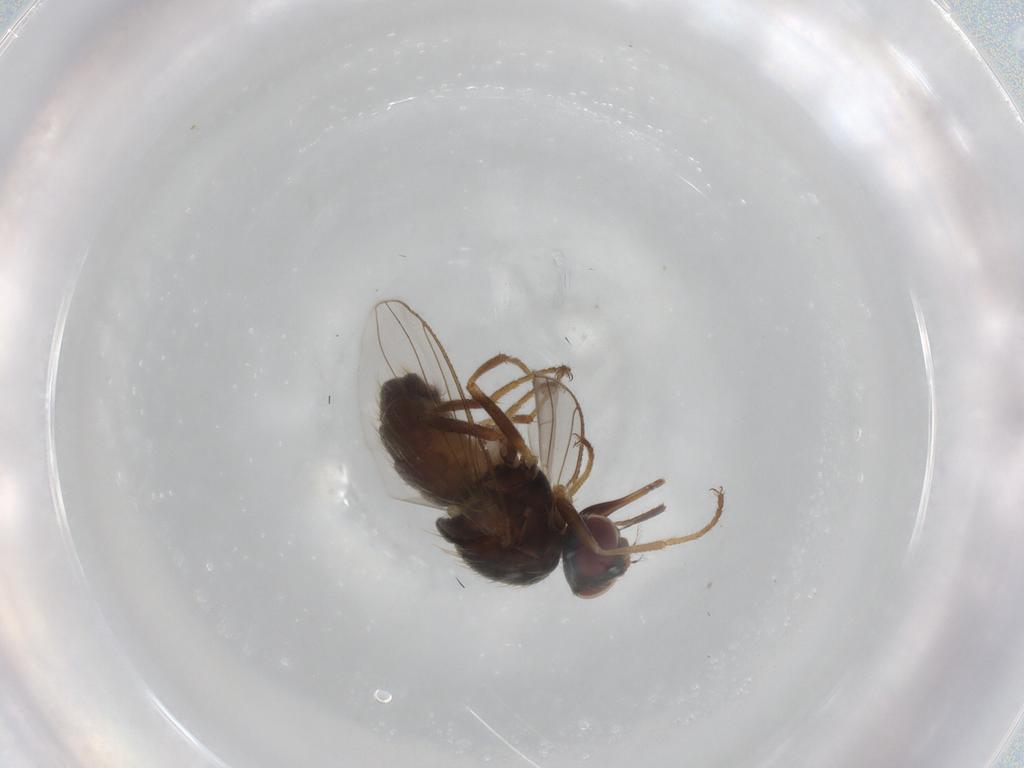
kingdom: Animalia
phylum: Arthropoda
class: Insecta
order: Diptera
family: Muscidae
